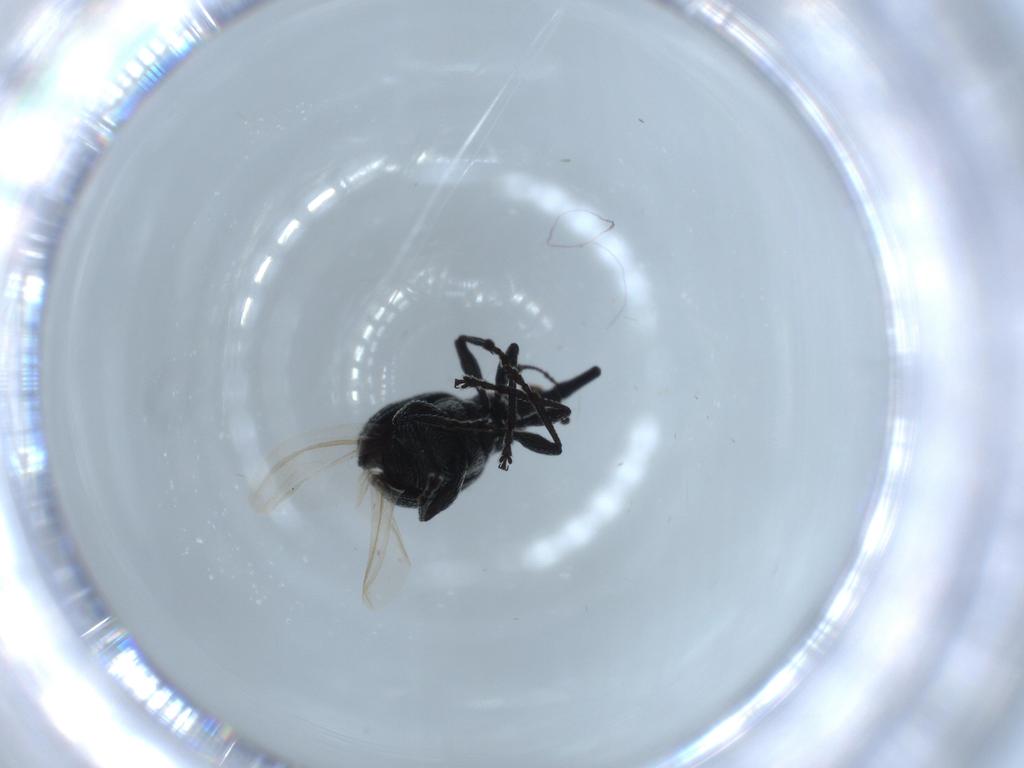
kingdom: Animalia
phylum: Arthropoda
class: Insecta
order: Coleoptera
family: Brentidae
